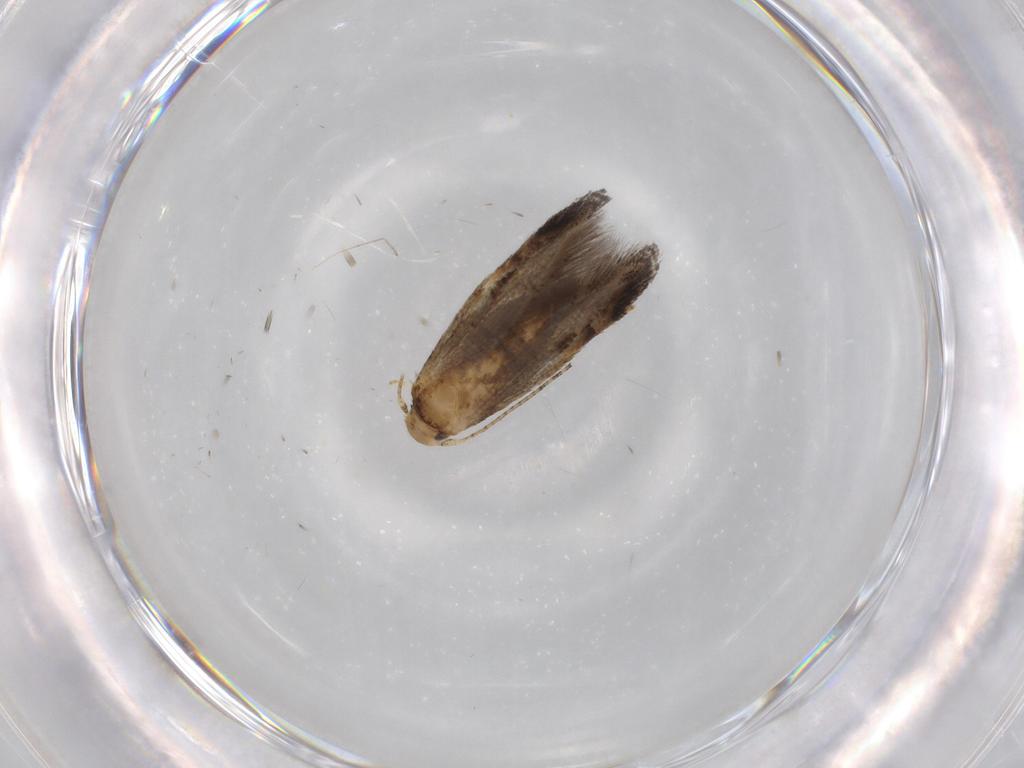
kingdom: Animalia
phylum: Arthropoda
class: Insecta
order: Lepidoptera
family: Momphidae
